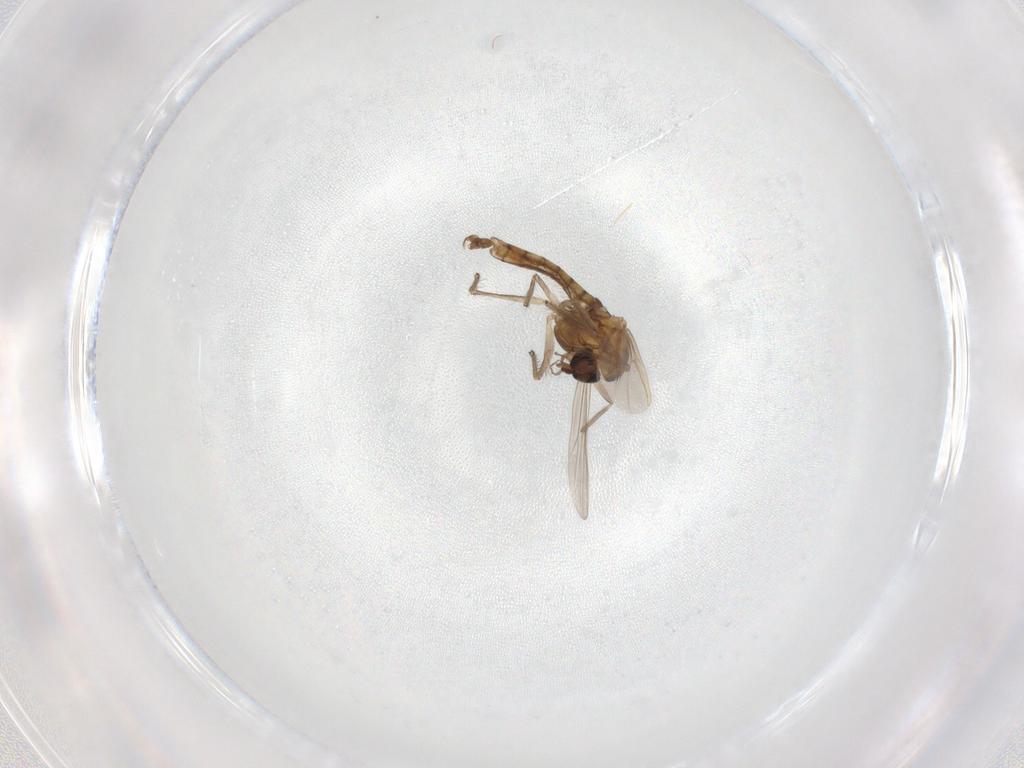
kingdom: Animalia
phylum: Arthropoda
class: Insecta
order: Diptera
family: Chironomidae
